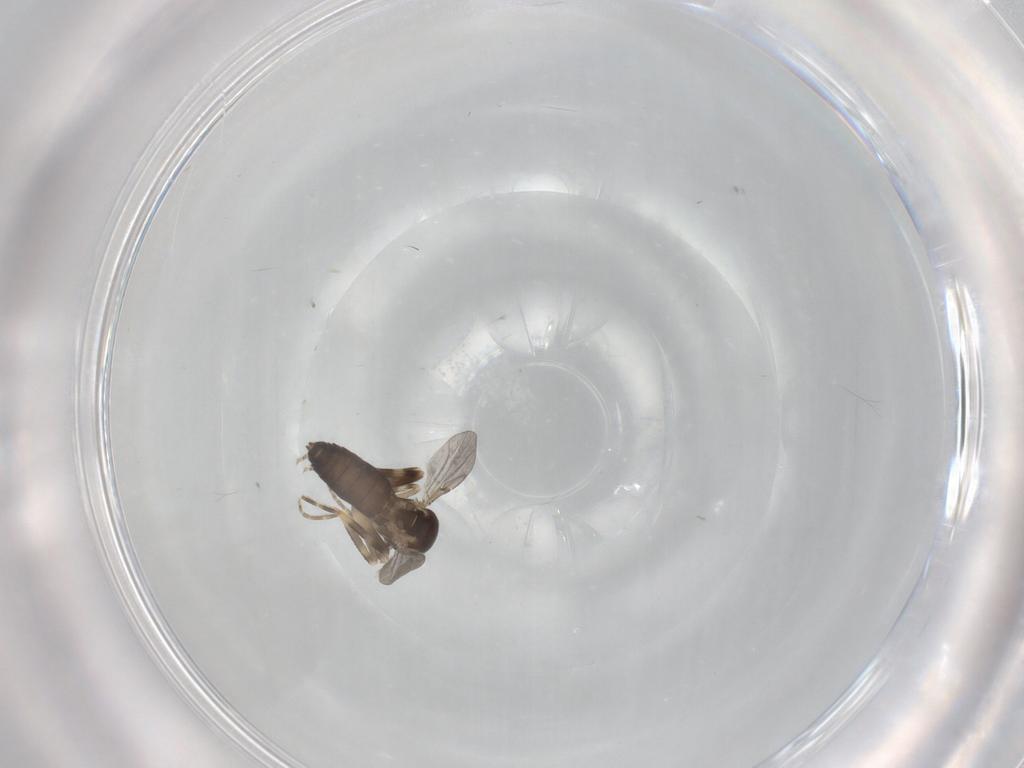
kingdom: Animalia
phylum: Arthropoda
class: Insecta
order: Diptera
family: Ceratopogonidae
